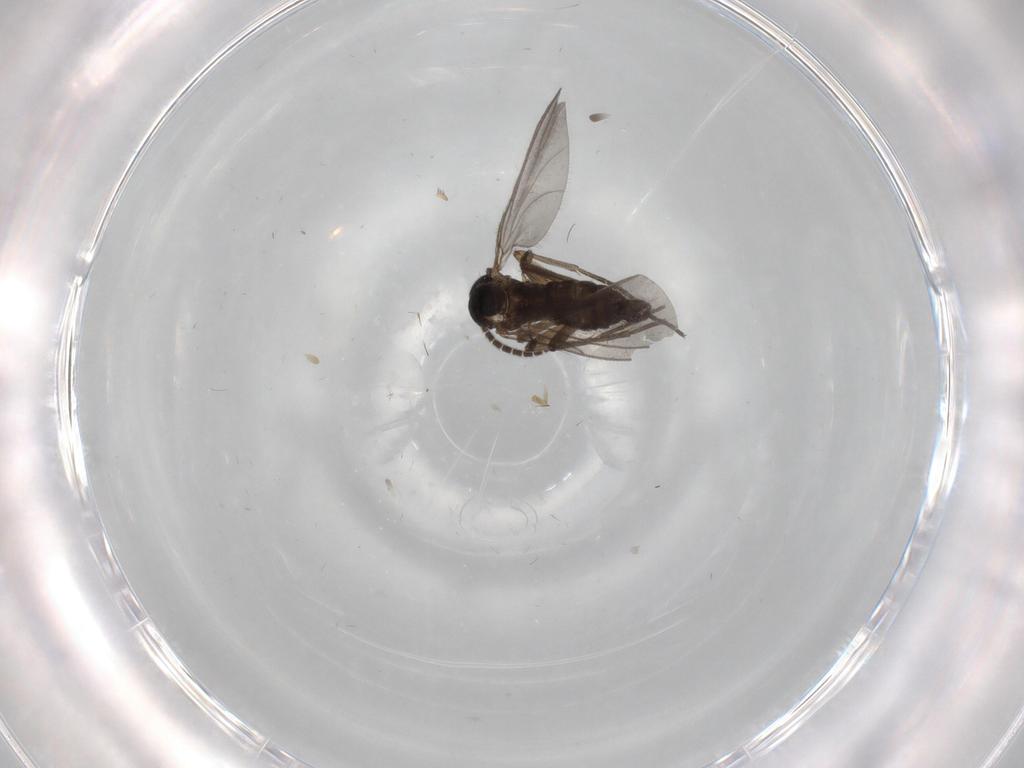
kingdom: Animalia
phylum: Arthropoda
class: Insecta
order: Diptera
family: Sciaridae
